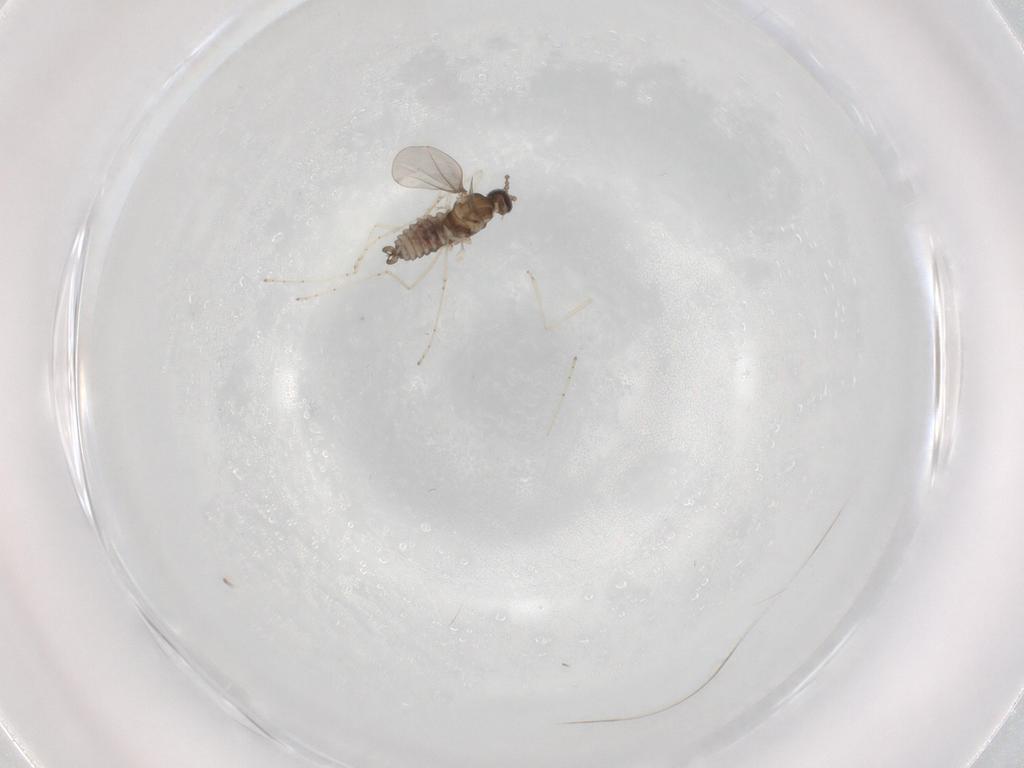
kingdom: Animalia
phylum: Arthropoda
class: Insecta
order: Diptera
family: Cecidomyiidae
